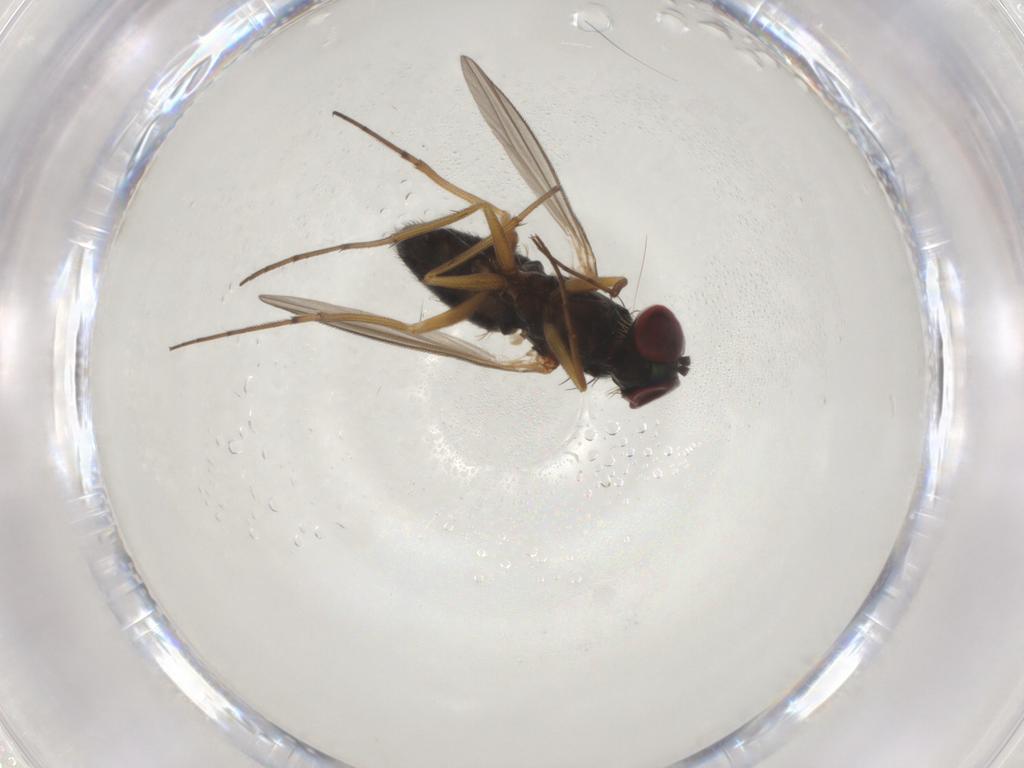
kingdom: Animalia
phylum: Arthropoda
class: Insecta
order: Diptera
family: Dolichopodidae
